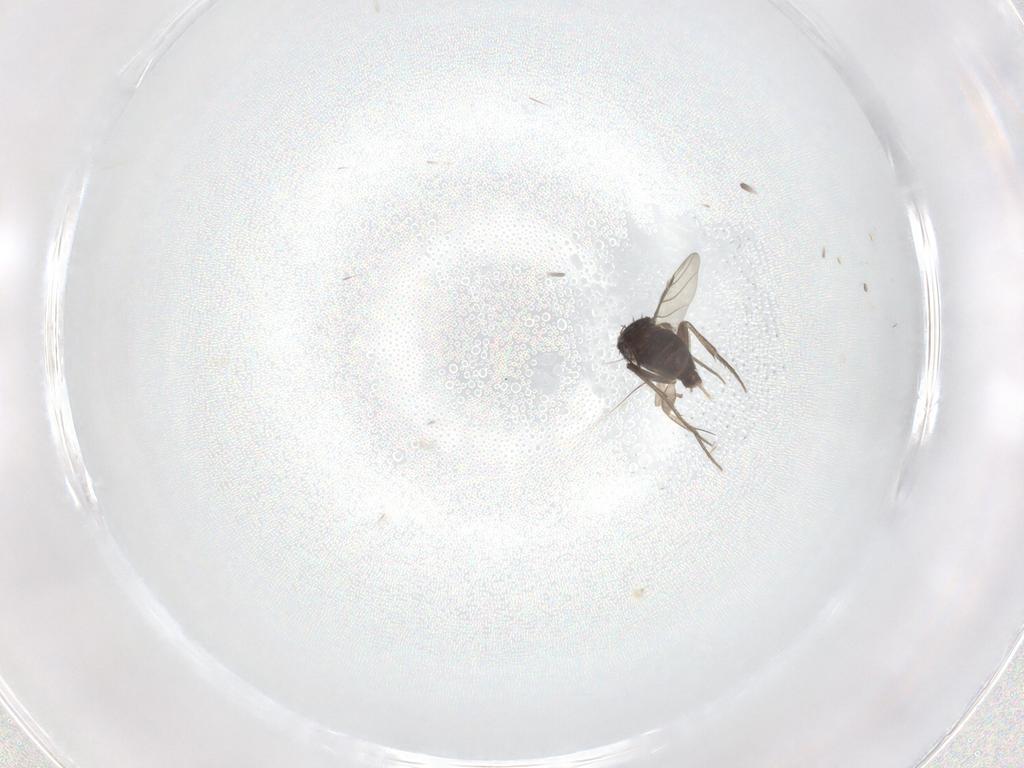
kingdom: Animalia
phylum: Arthropoda
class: Insecta
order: Diptera
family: Phoridae
